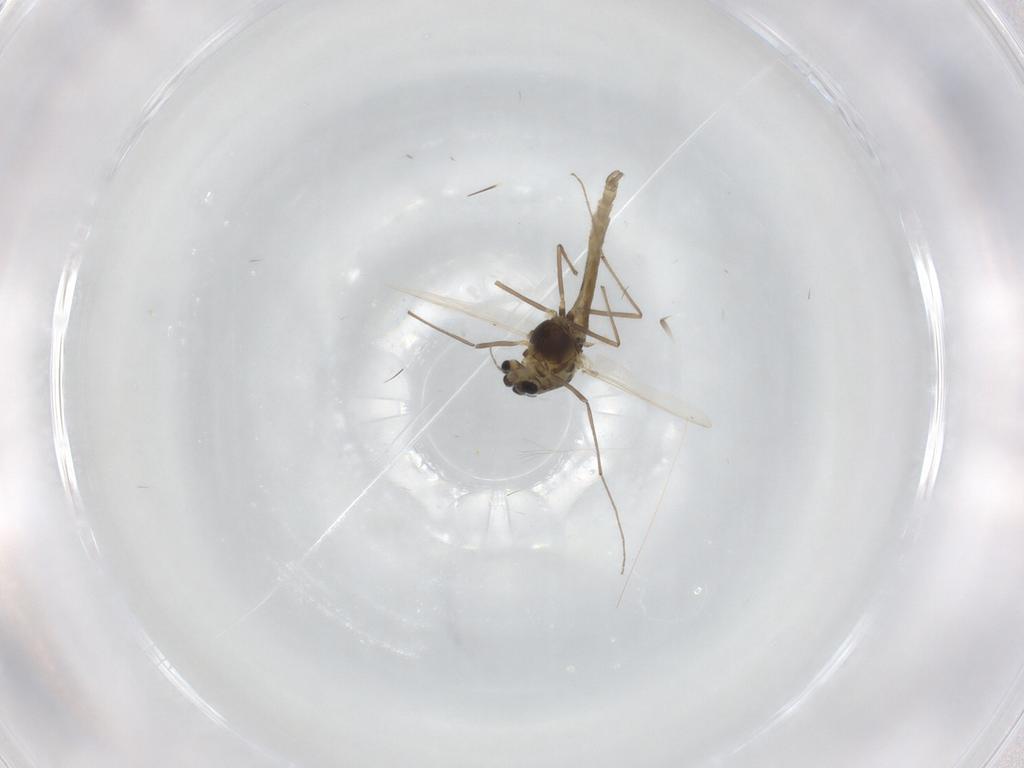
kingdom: Animalia
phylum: Arthropoda
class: Insecta
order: Diptera
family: Chironomidae
